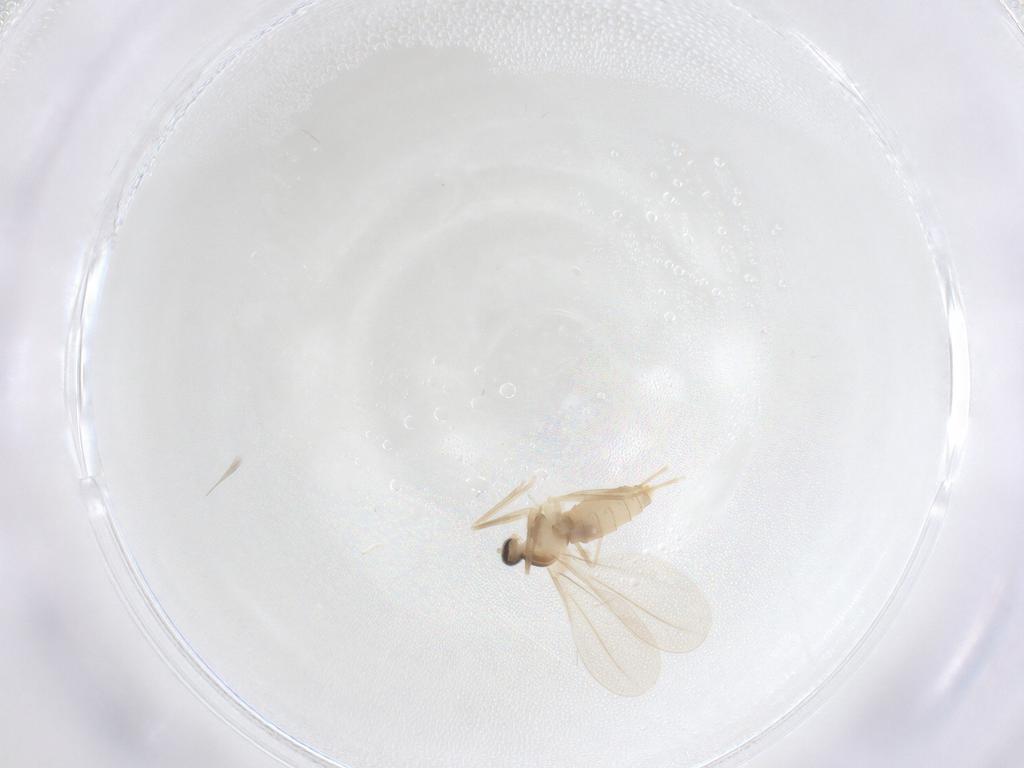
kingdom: Animalia
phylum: Arthropoda
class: Insecta
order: Diptera
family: Cecidomyiidae
